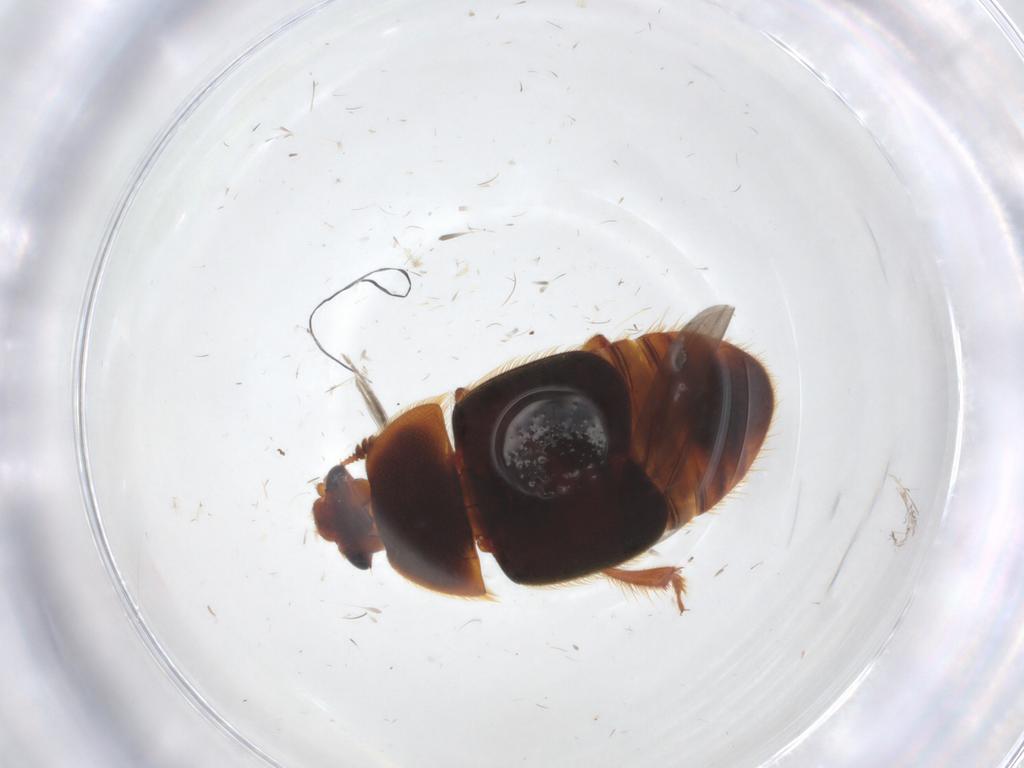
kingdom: Animalia
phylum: Arthropoda
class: Insecta
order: Coleoptera
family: Nitidulidae
